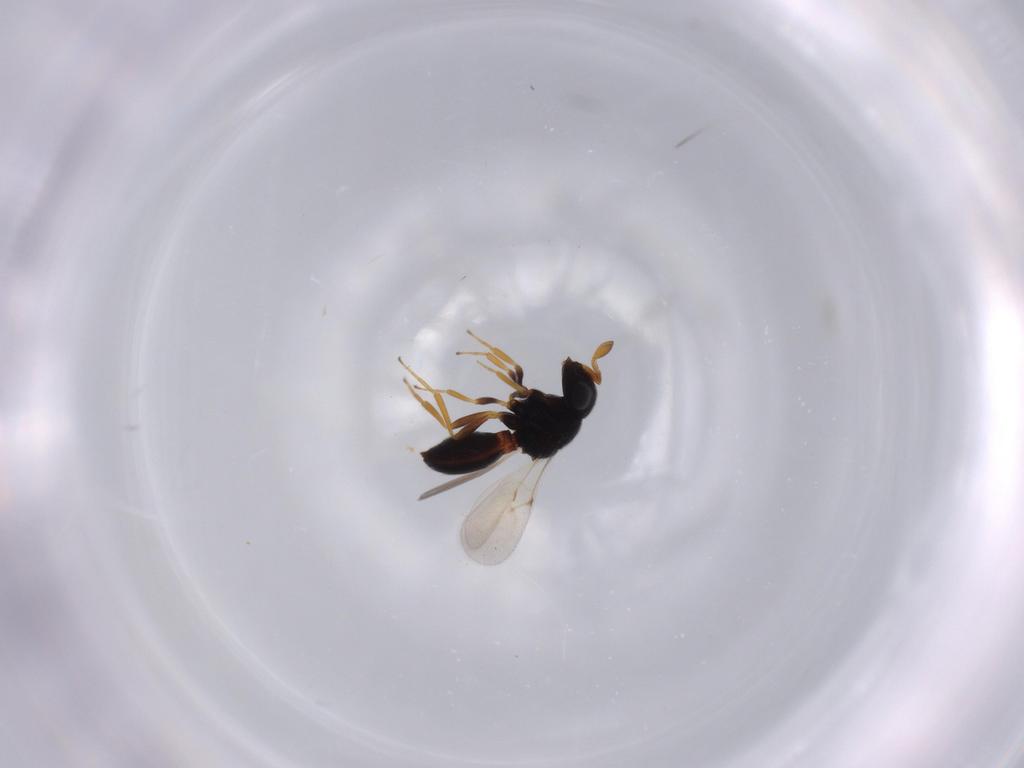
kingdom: Animalia
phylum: Arthropoda
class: Insecta
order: Hymenoptera
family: Scelionidae
